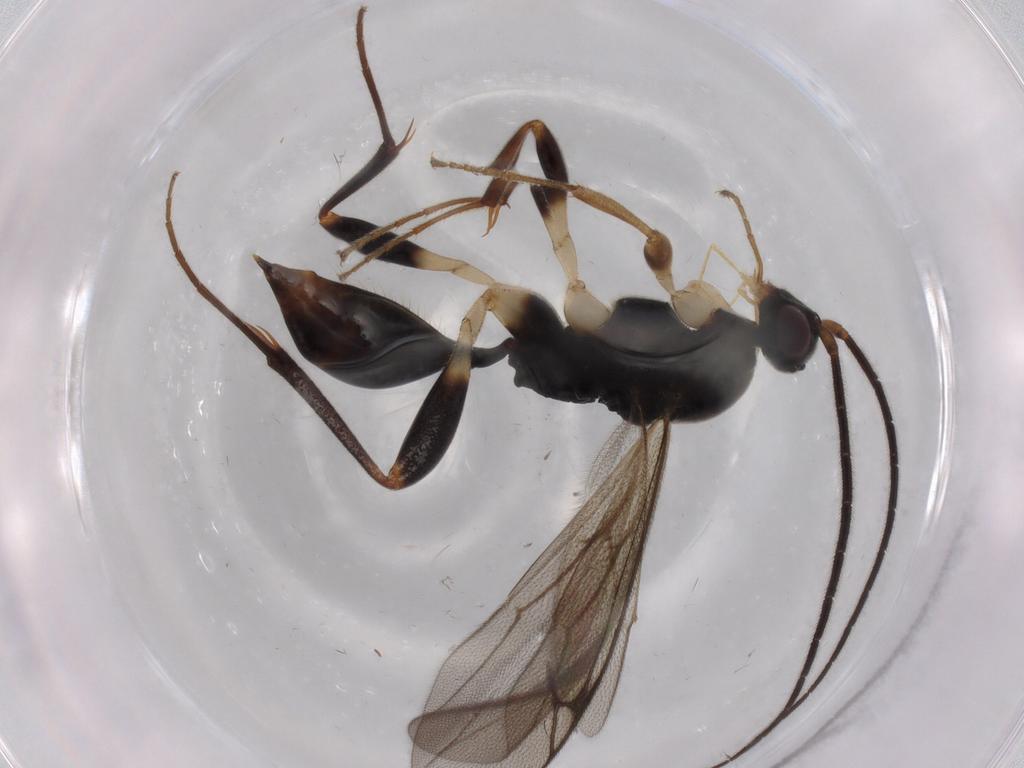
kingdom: Animalia
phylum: Arthropoda
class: Insecta
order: Hymenoptera
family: Proctotrupidae
